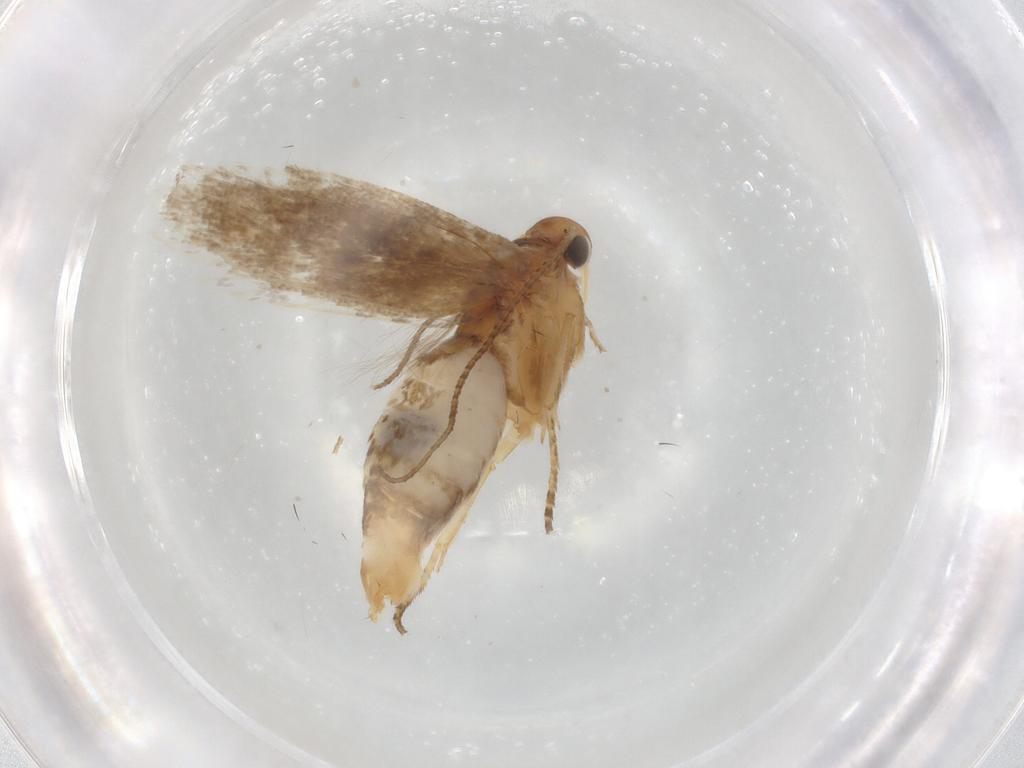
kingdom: Animalia
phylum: Arthropoda
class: Insecta
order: Lepidoptera
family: Gelechiidae
